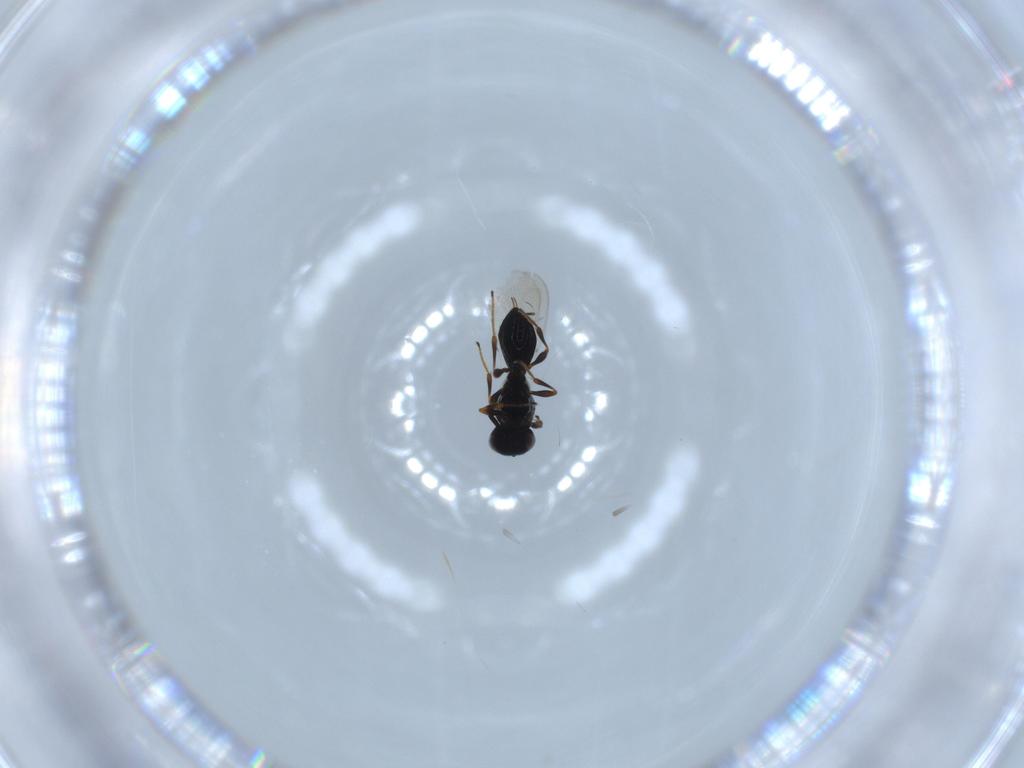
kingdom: Animalia
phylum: Arthropoda
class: Insecta
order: Hymenoptera
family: Platygastridae
